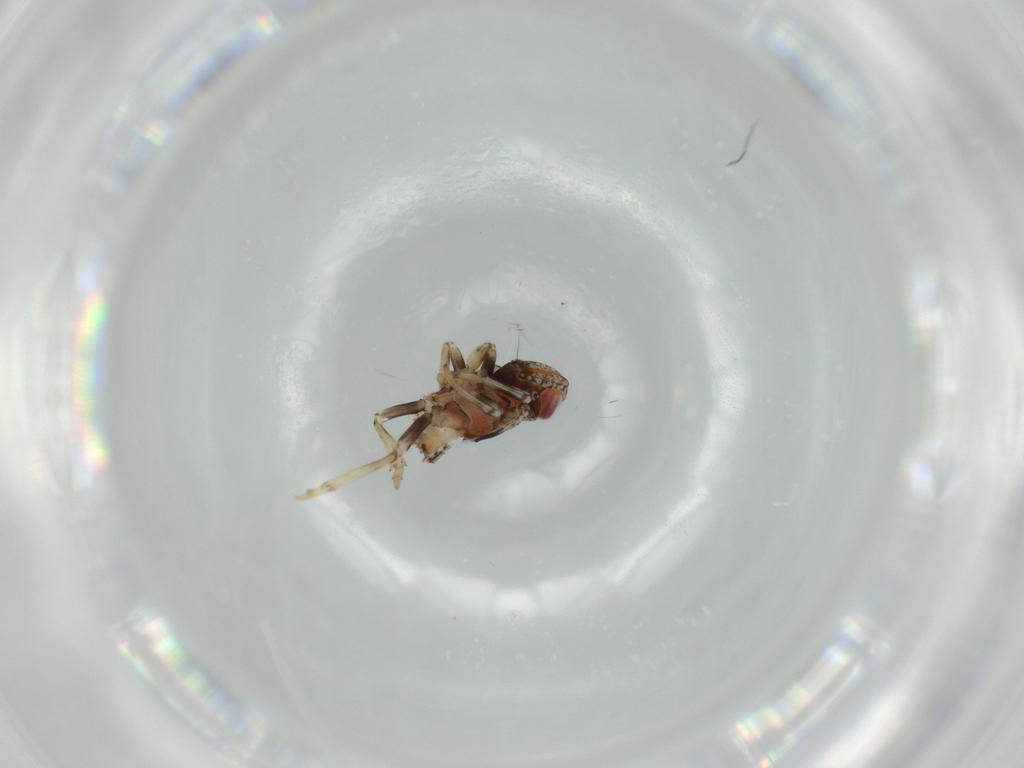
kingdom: Animalia
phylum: Arthropoda
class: Insecta
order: Hemiptera
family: Issidae
